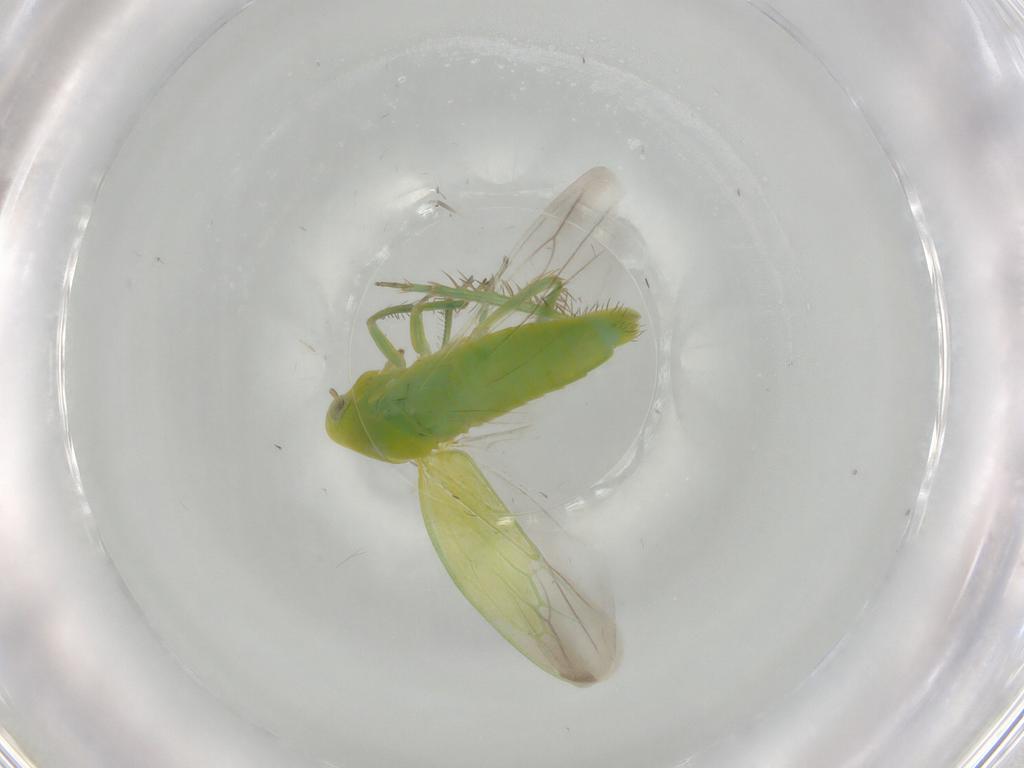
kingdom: Animalia
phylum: Arthropoda
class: Insecta
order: Hemiptera
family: Cicadellidae
